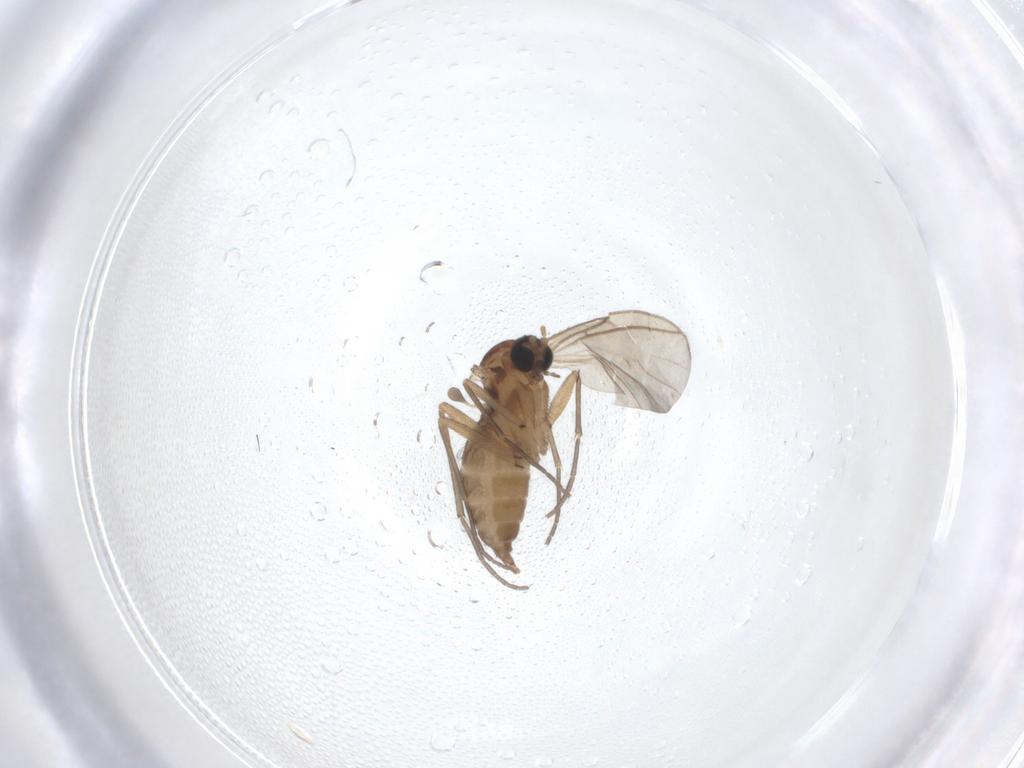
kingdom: Animalia
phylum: Arthropoda
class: Insecta
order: Diptera
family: Sciaridae
